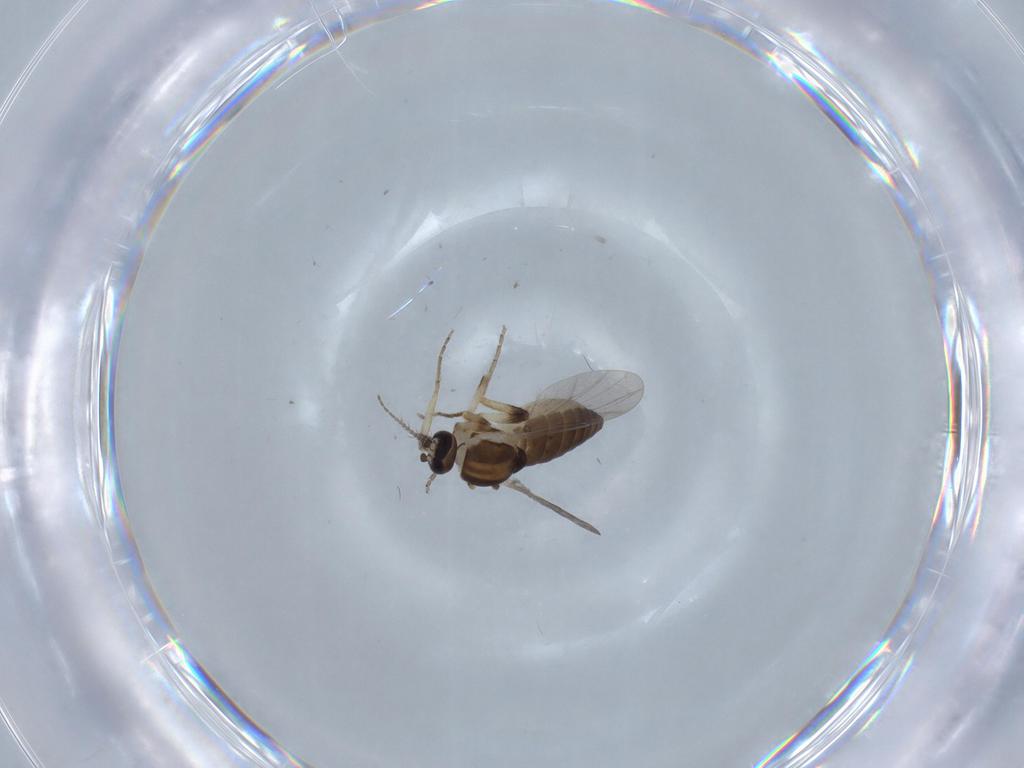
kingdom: Animalia
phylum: Arthropoda
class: Insecta
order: Diptera
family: Ceratopogonidae
